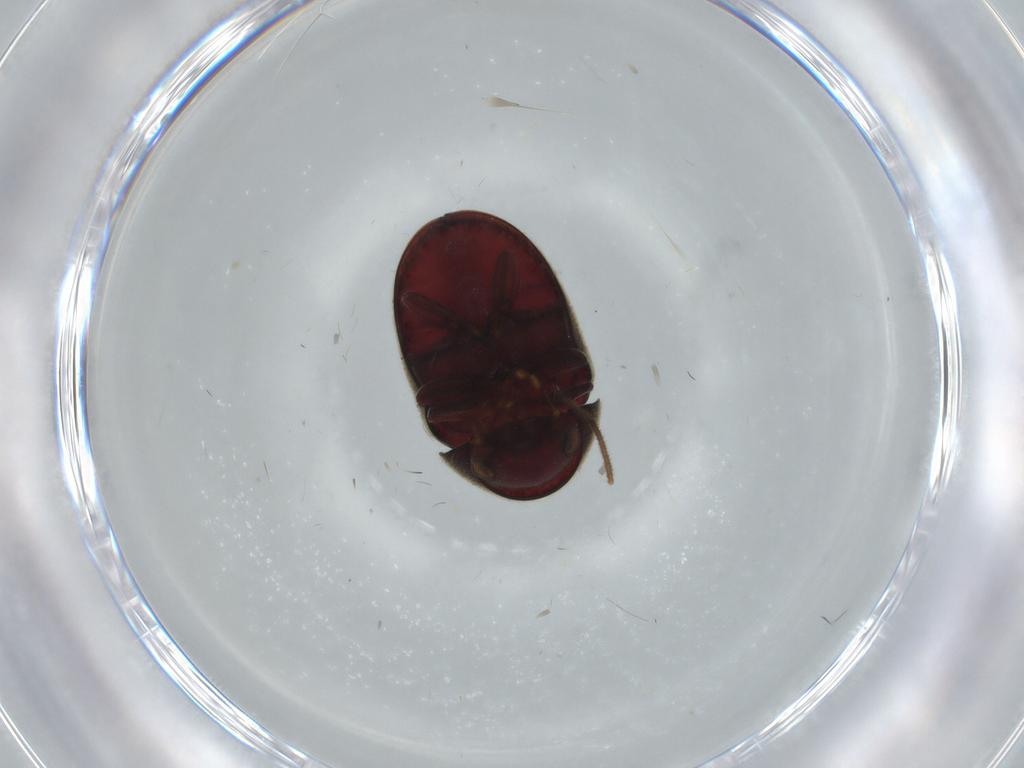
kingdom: Animalia
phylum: Arthropoda
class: Insecta
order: Coleoptera
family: Ptinidae
